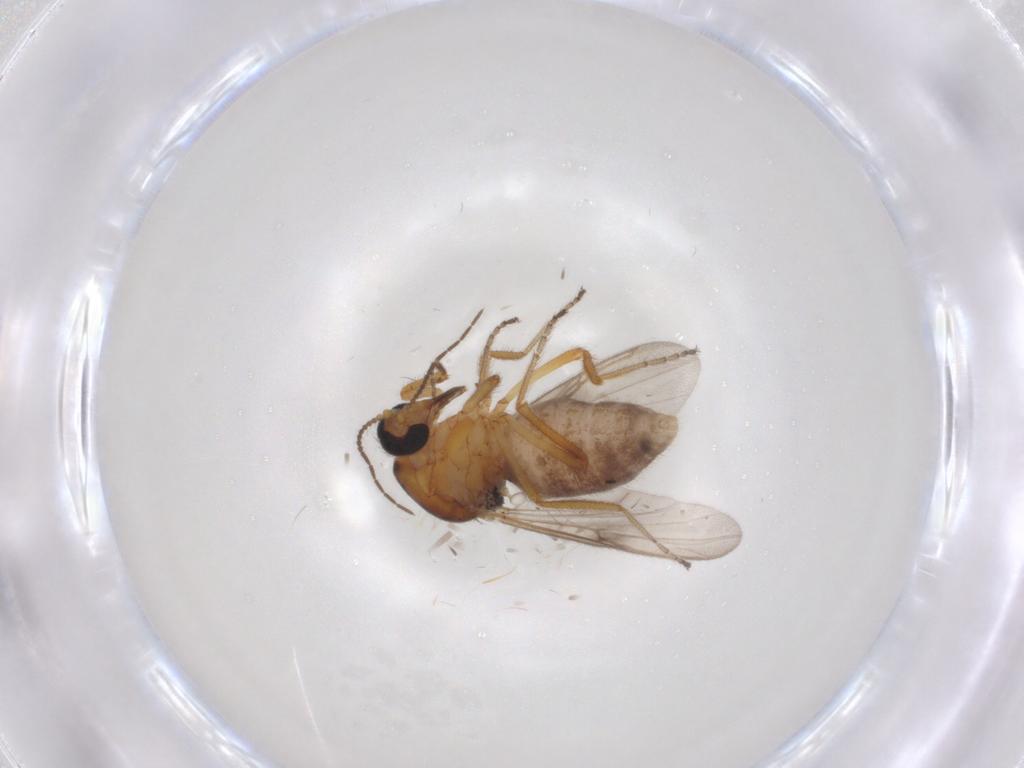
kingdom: Animalia
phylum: Arthropoda
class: Insecta
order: Diptera
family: Ceratopogonidae
